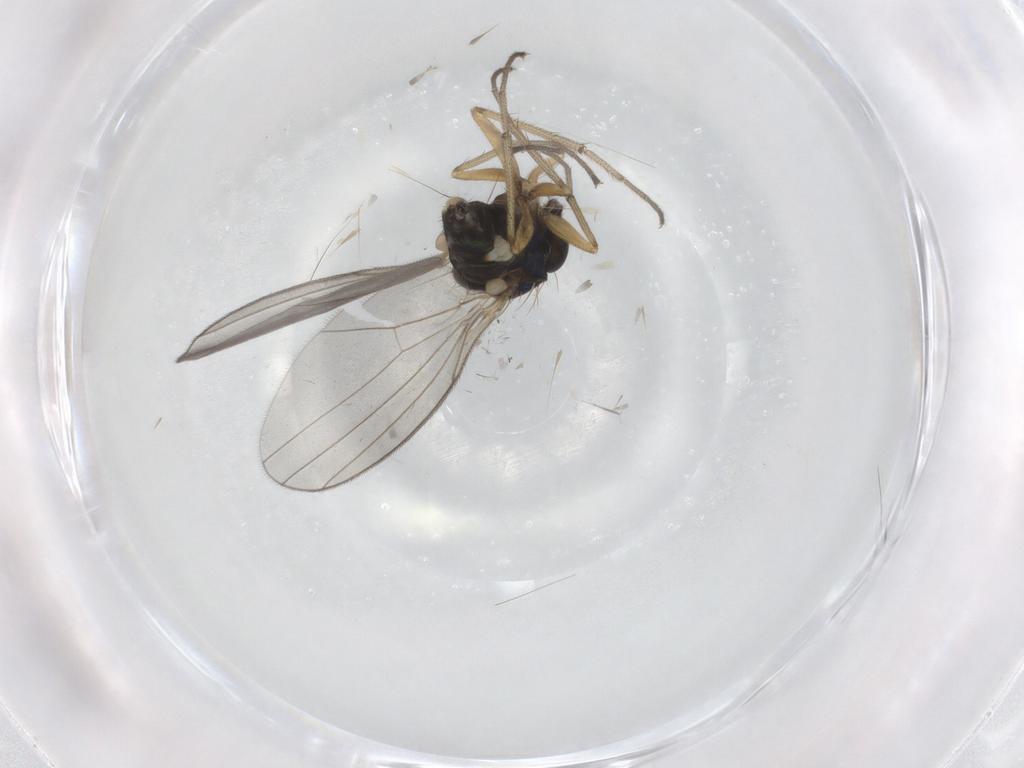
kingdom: Animalia
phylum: Arthropoda
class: Insecta
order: Diptera
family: Dolichopodidae
